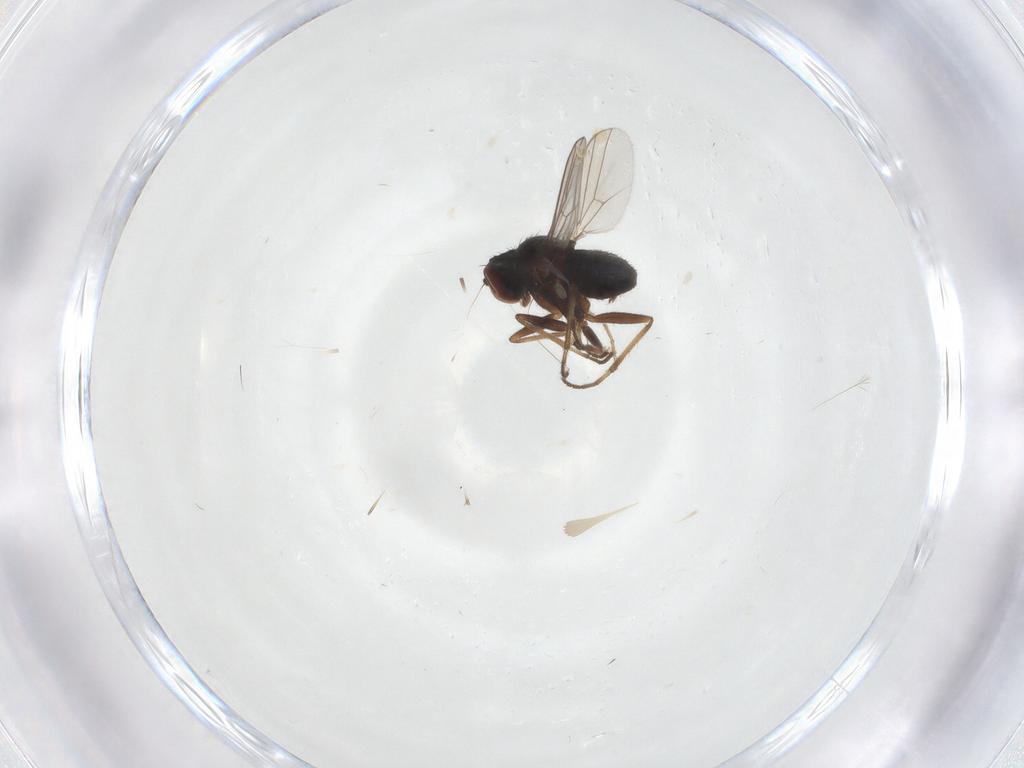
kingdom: Animalia
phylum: Arthropoda
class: Insecta
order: Diptera
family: Dolichopodidae
